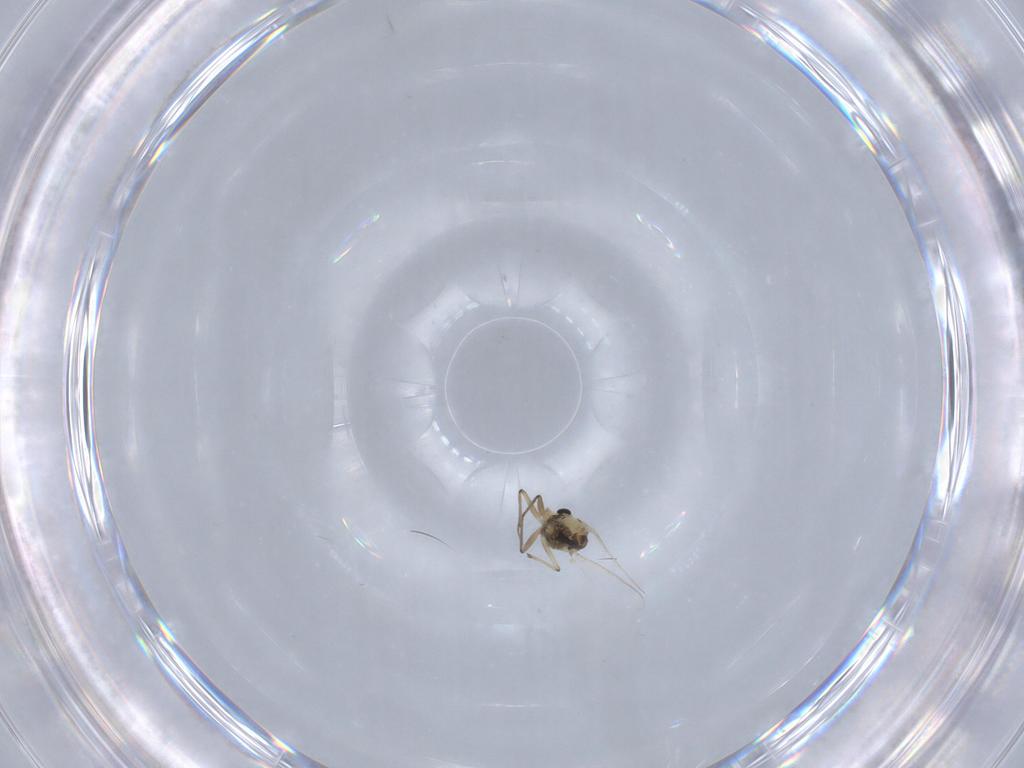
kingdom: Animalia
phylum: Arthropoda
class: Insecta
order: Diptera
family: Chironomidae
